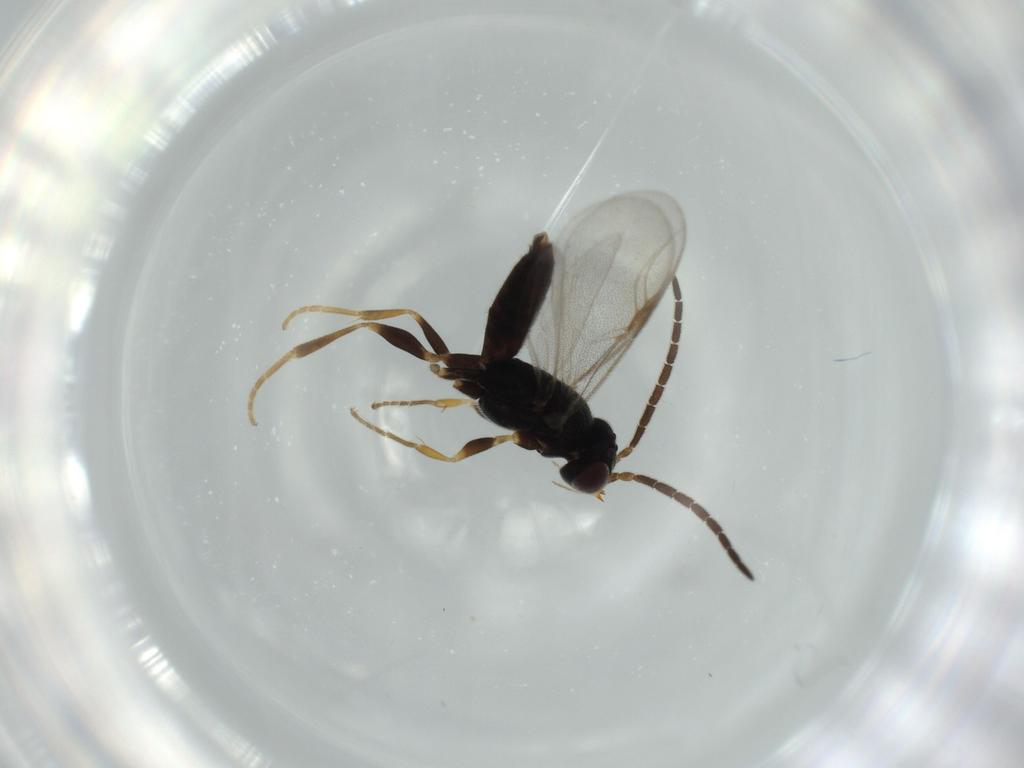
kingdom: Animalia
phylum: Arthropoda
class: Insecta
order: Hymenoptera
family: Dryinidae
